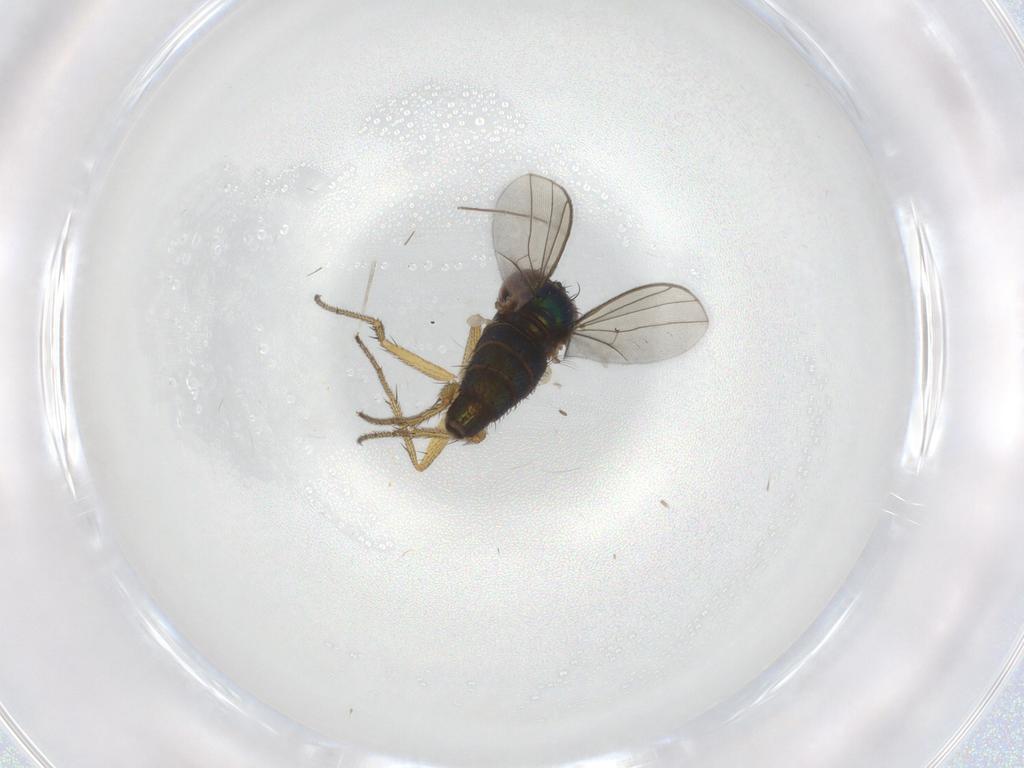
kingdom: Animalia
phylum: Arthropoda
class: Insecta
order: Diptera
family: Cecidomyiidae
